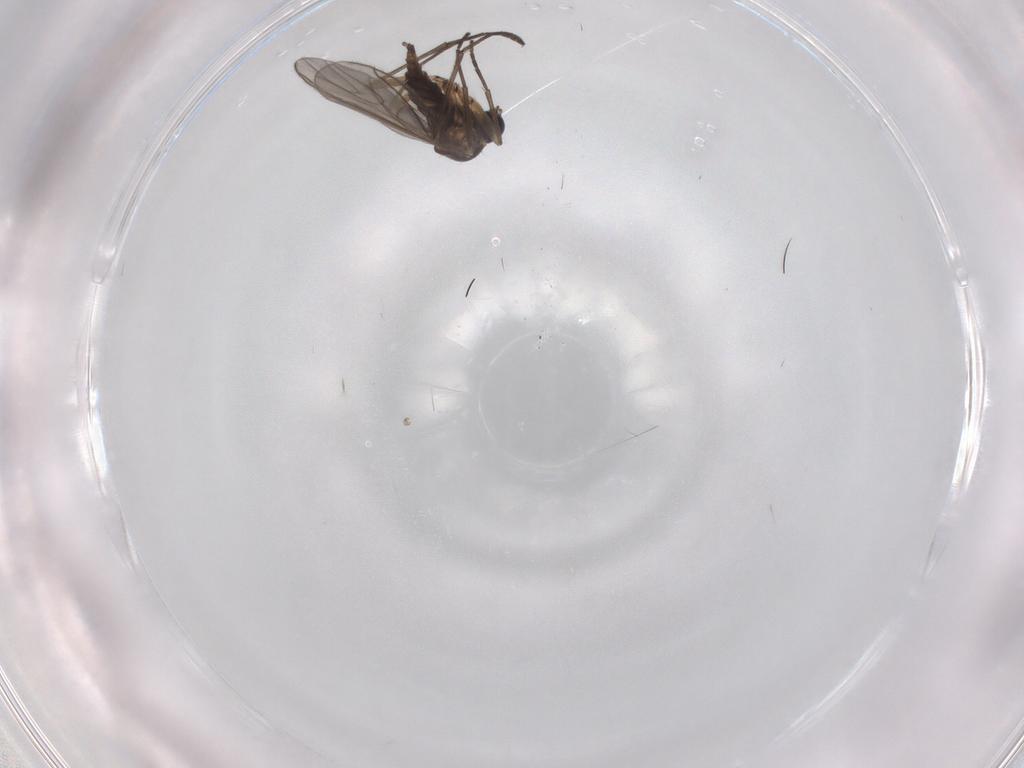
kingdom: Animalia
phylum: Arthropoda
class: Insecta
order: Diptera
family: Sciaridae
